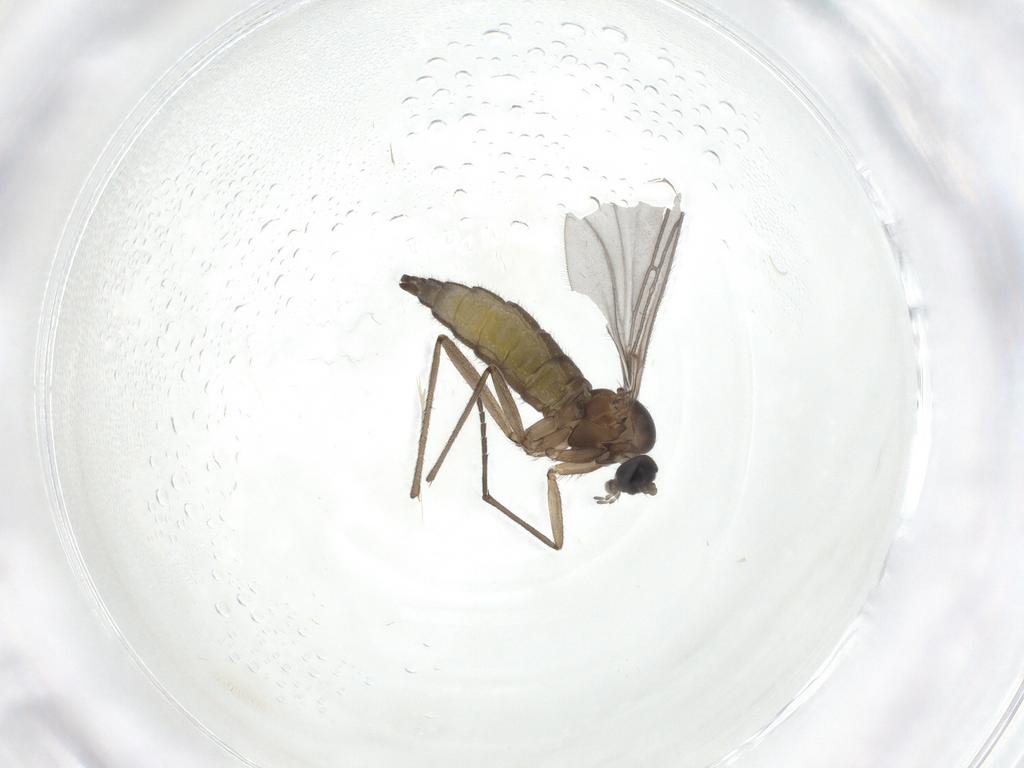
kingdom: Animalia
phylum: Arthropoda
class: Insecta
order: Diptera
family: Sciaridae
